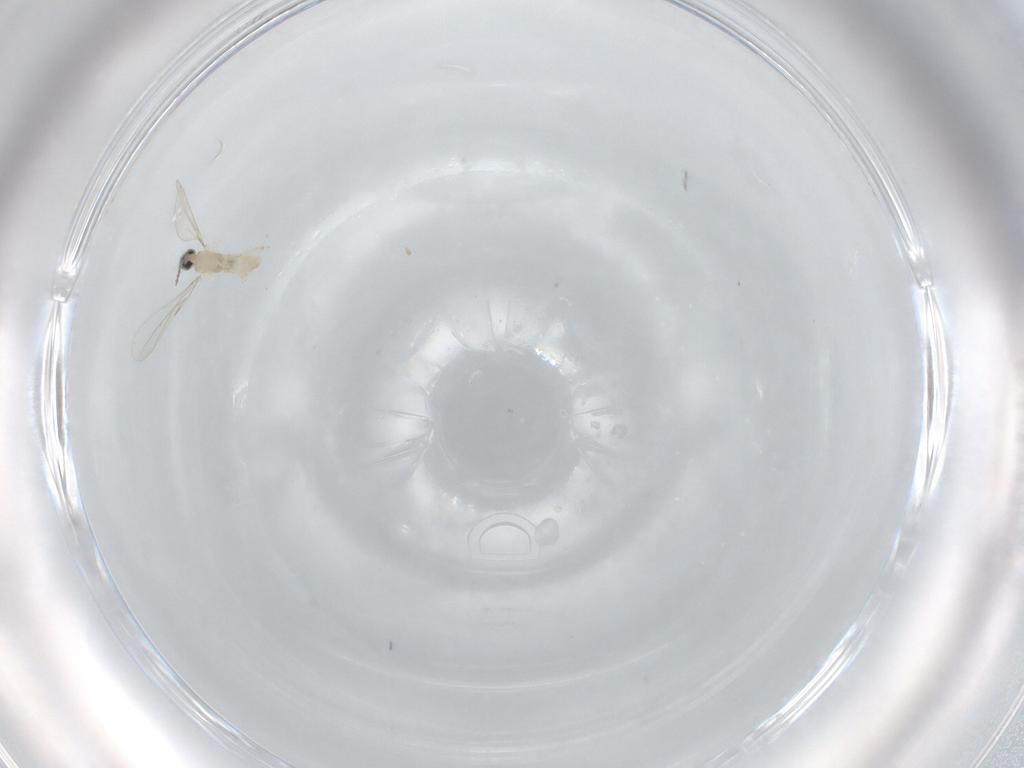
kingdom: Animalia
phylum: Arthropoda
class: Insecta
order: Diptera
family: Cecidomyiidae
